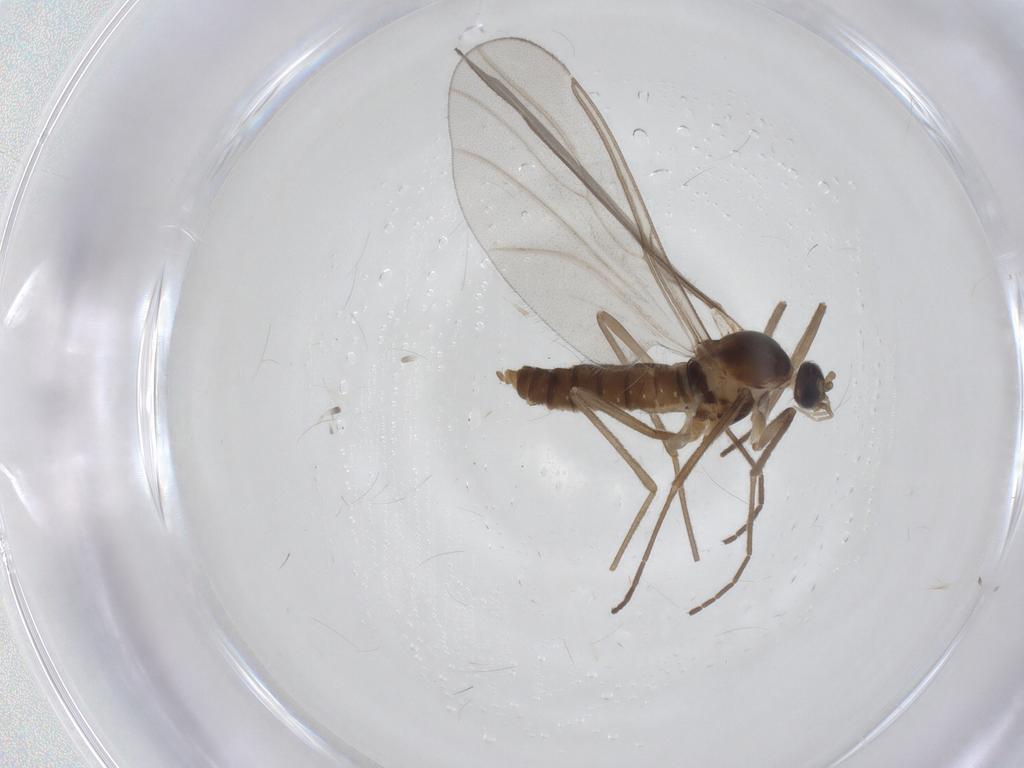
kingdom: Animalia
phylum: Arthropoda
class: Insecta
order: Diptera
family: Cecidomyiidae
